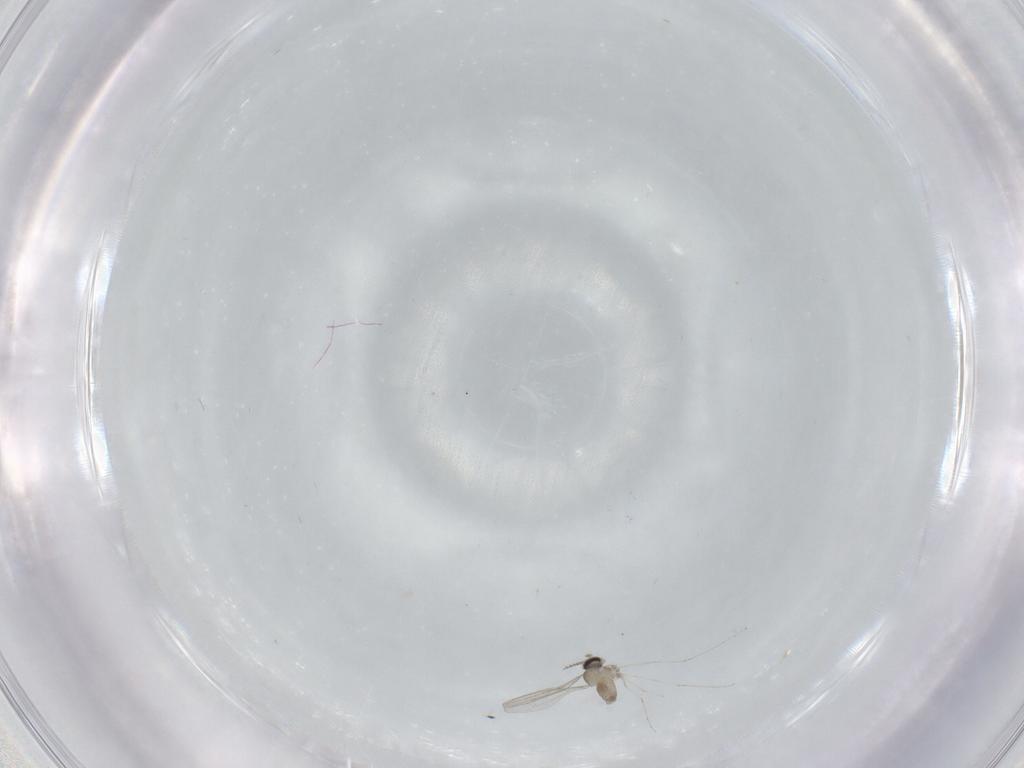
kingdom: Animalia
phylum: Arthropoda
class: Insecta
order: Diptera
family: Cecidomyiidae
